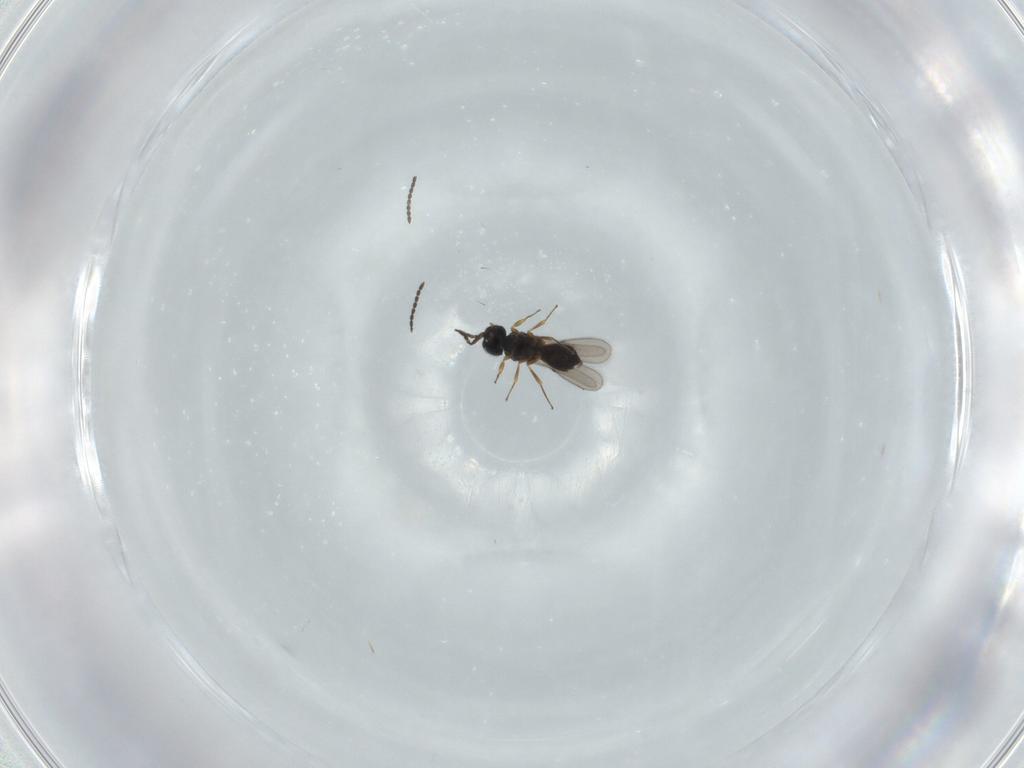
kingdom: Animalia
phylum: Arthropoda
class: Insecta
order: Hymenoptera
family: Scelionidae
